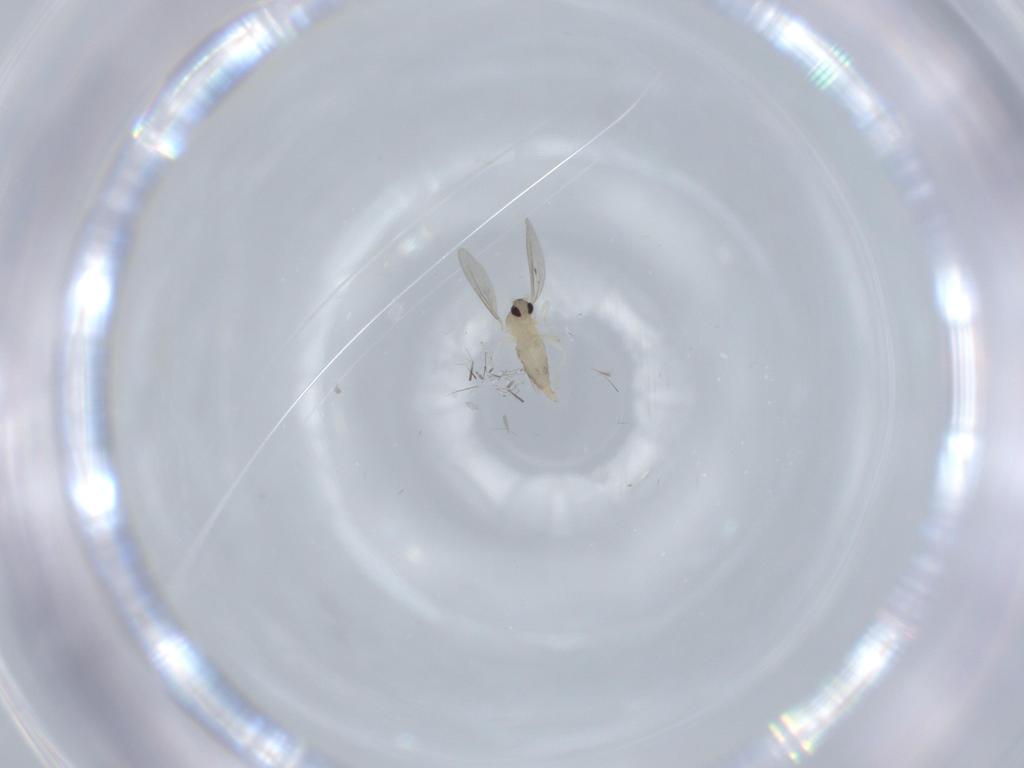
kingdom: Animalia
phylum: Arthropoda
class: Insecta
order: Diptera
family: Cecidomyiidae
